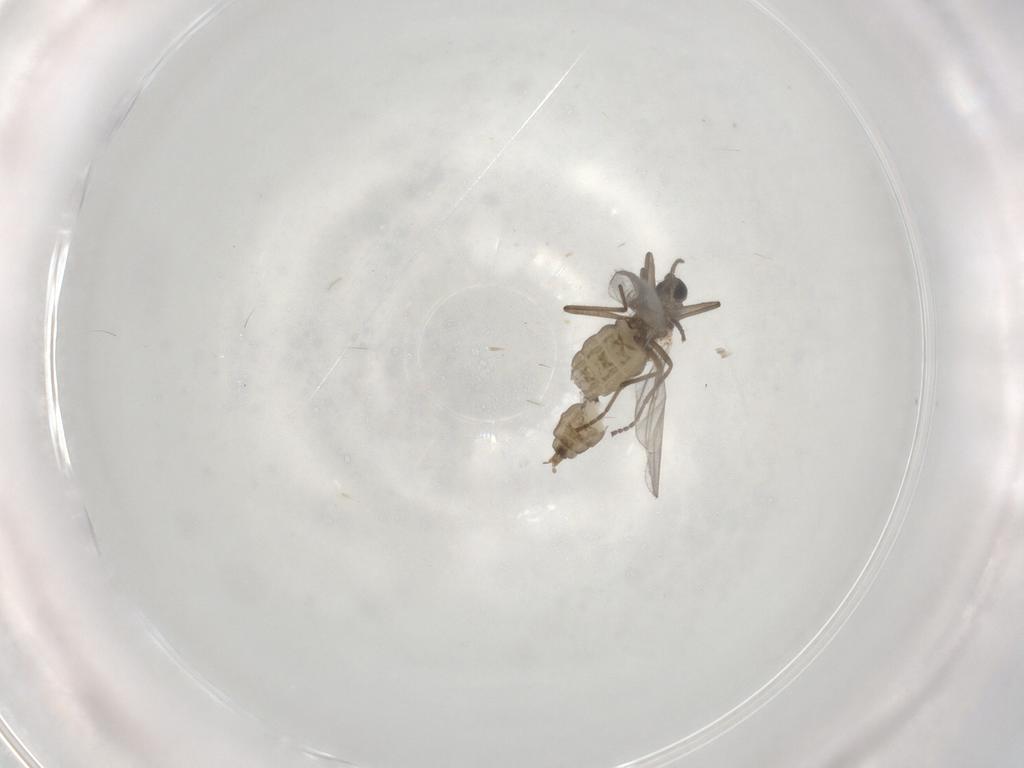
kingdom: Animalia
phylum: Arthropoda
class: Insecta
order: Diptera
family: Cecidomyiidae
